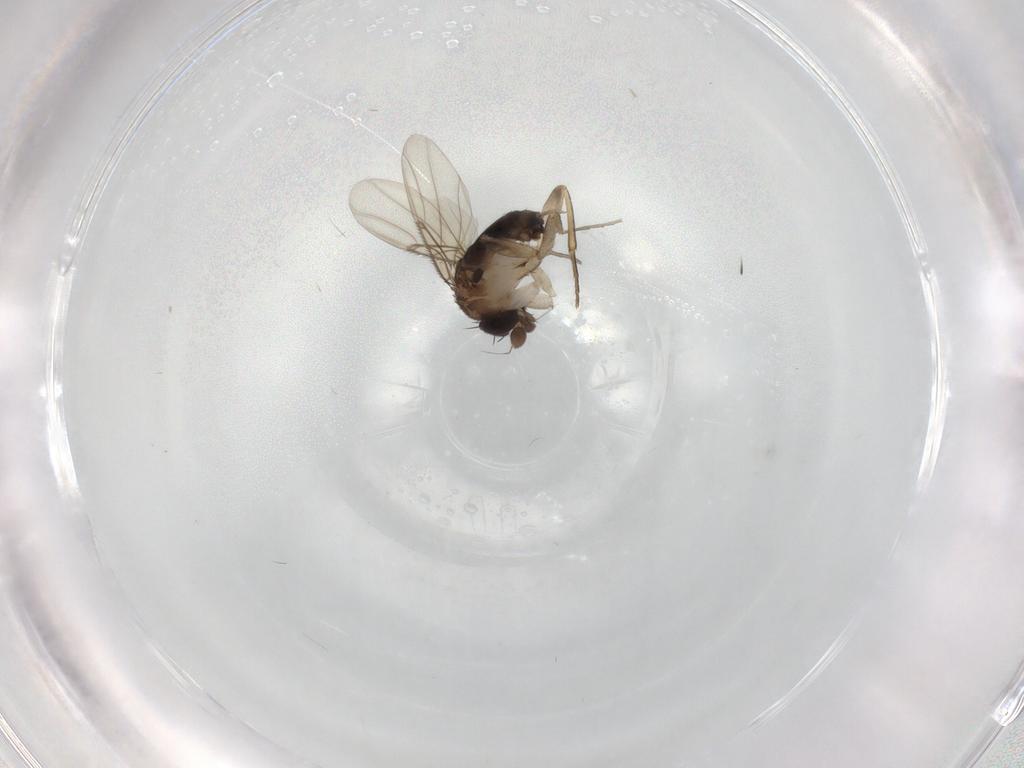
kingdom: Animalia
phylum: Arthropoda
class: Insecta
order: Diptera
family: Phoridae
